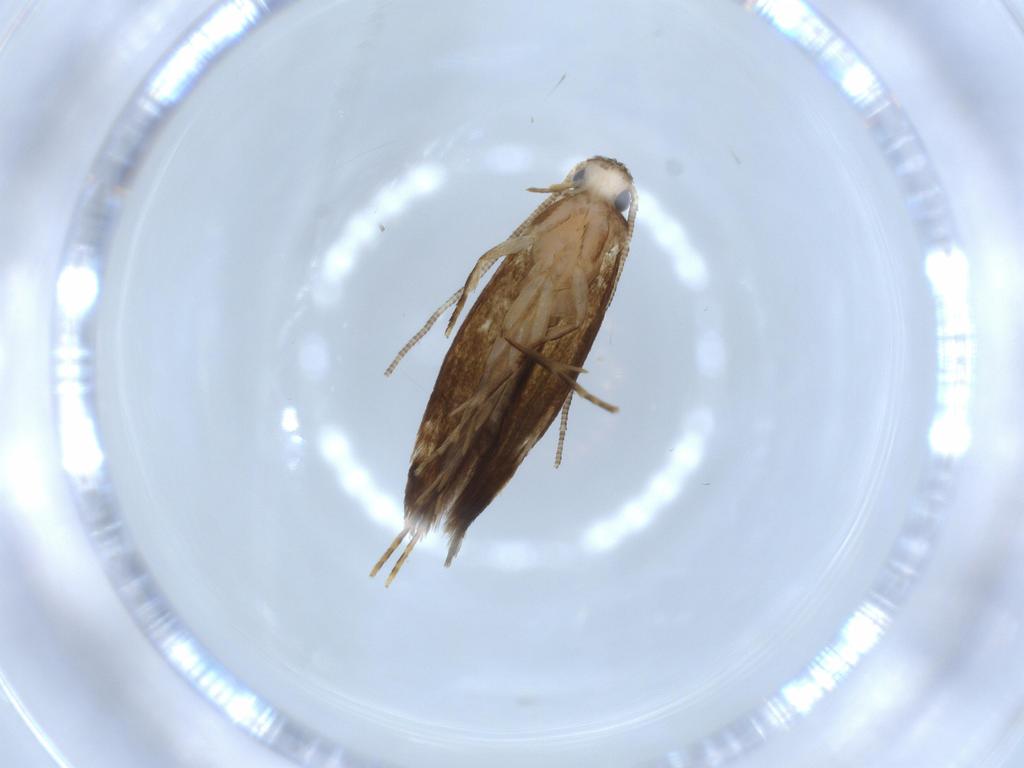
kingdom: Animalia
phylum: Arthropoda
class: Insecta
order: Lepidoptera
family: Tineidae
